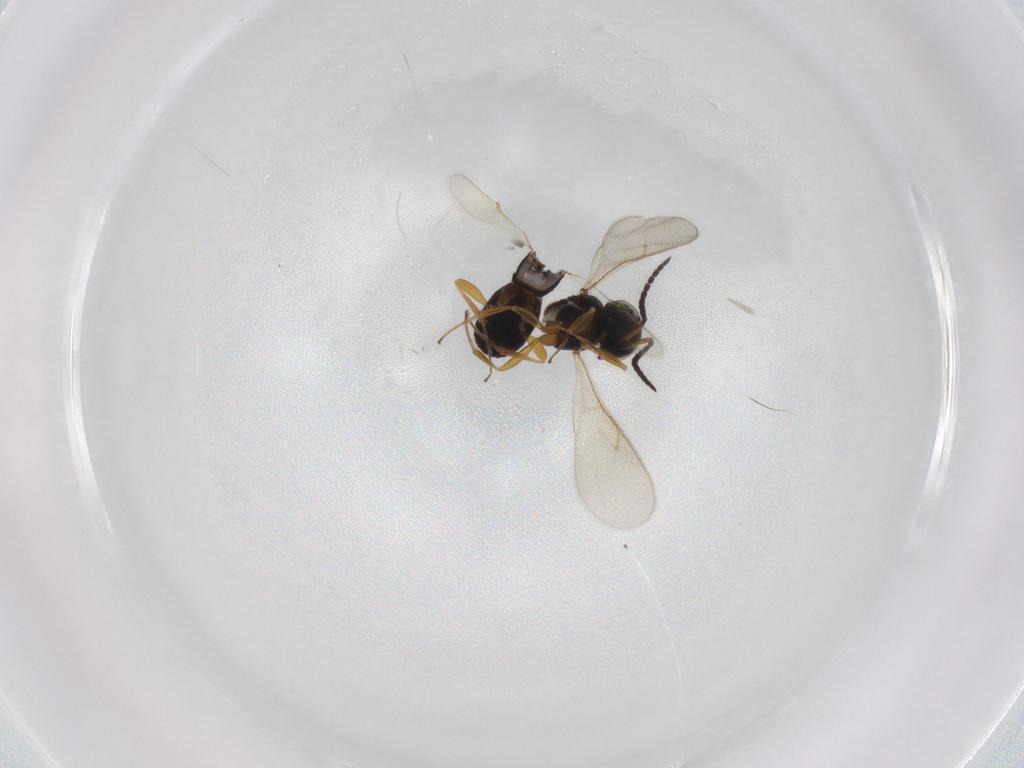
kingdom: Animalia
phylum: Arthropoda
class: Insecta
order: Hymenoptera
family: Scelionidae
